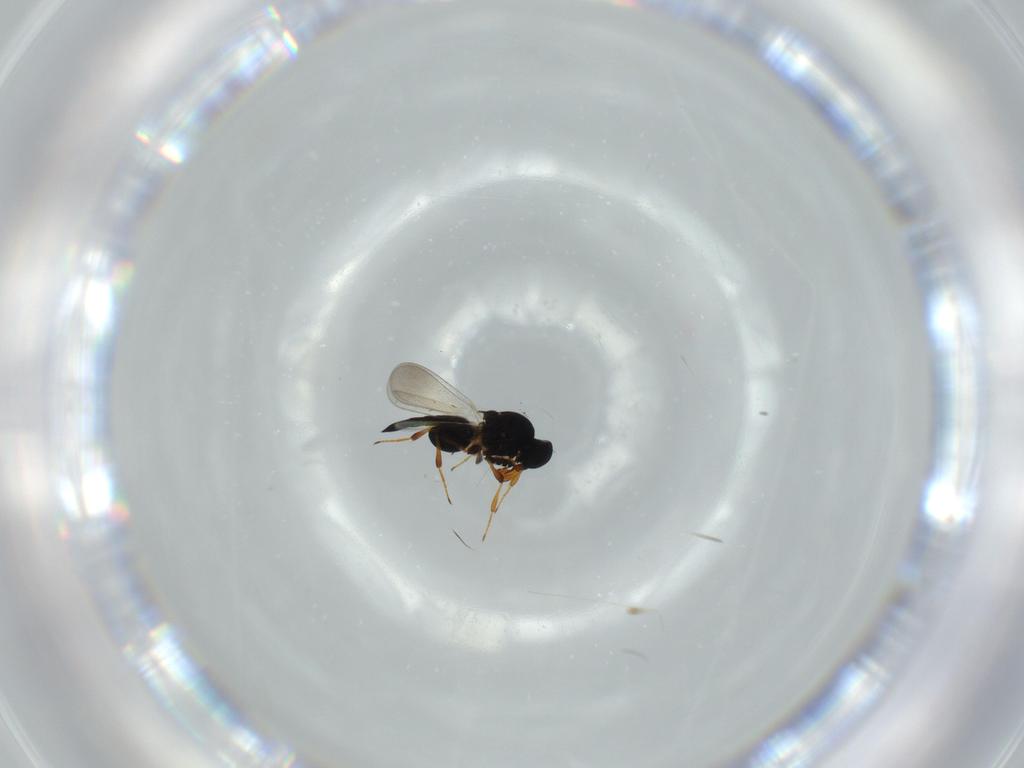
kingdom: Animalia
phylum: Arthropoda
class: Insecta
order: Hymenoptera
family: Platygastridae
